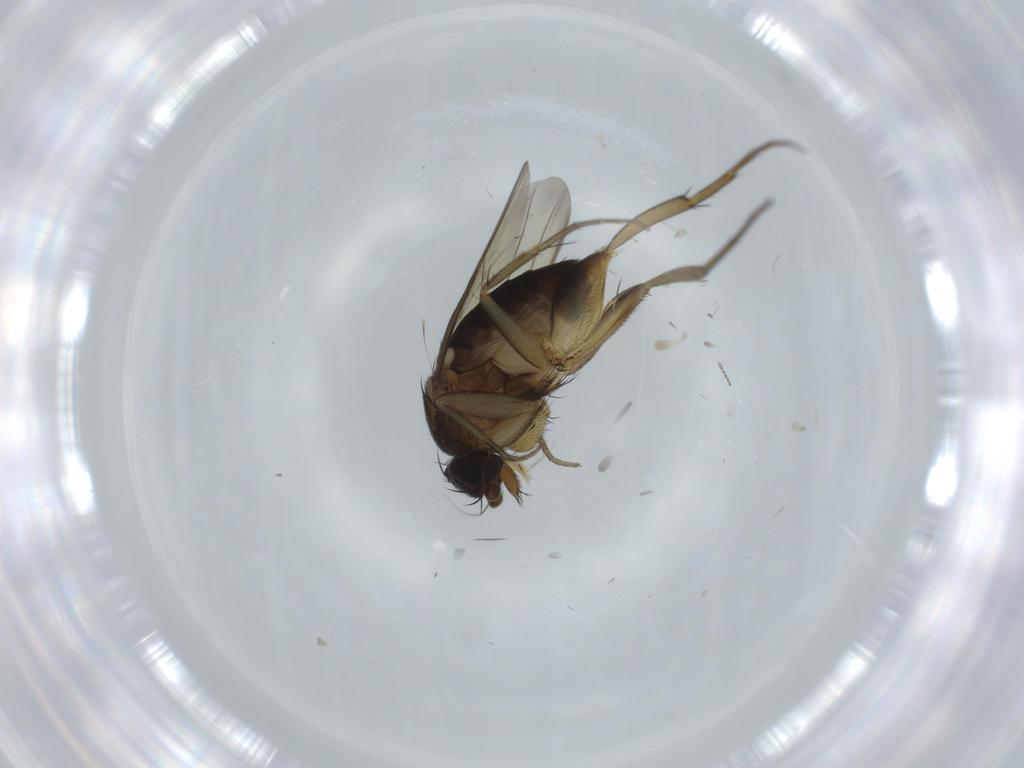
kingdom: Animalia
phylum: Arthropoda
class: Insecta
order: Diptera
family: Phoridae
